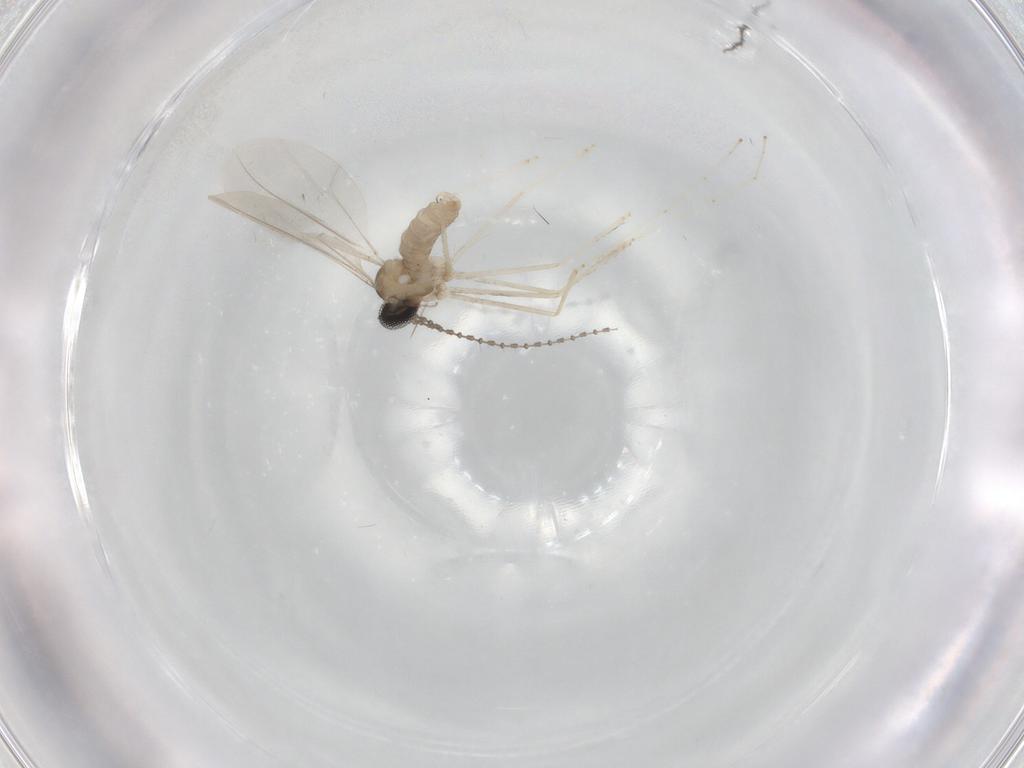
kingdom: Animalia
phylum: Arthropoda
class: Insecta
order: Diptera
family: Cecidomyiidae
